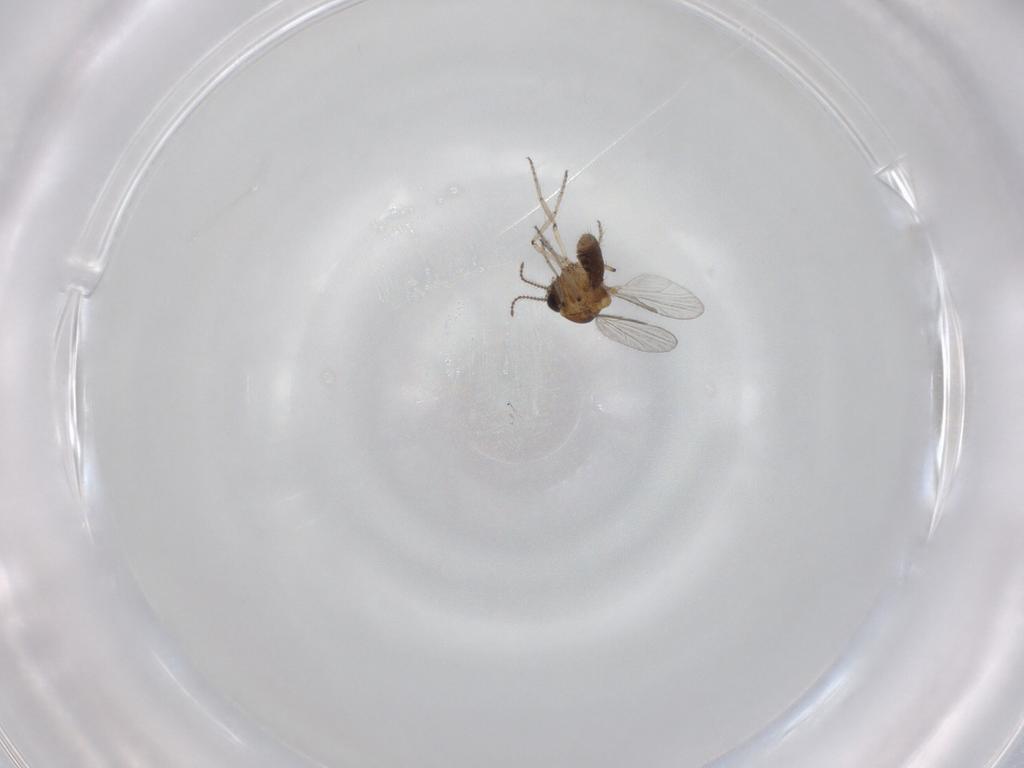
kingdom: Animalia
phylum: Arthropoda
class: Insecta
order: Diptera
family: Ceratopogonidae
